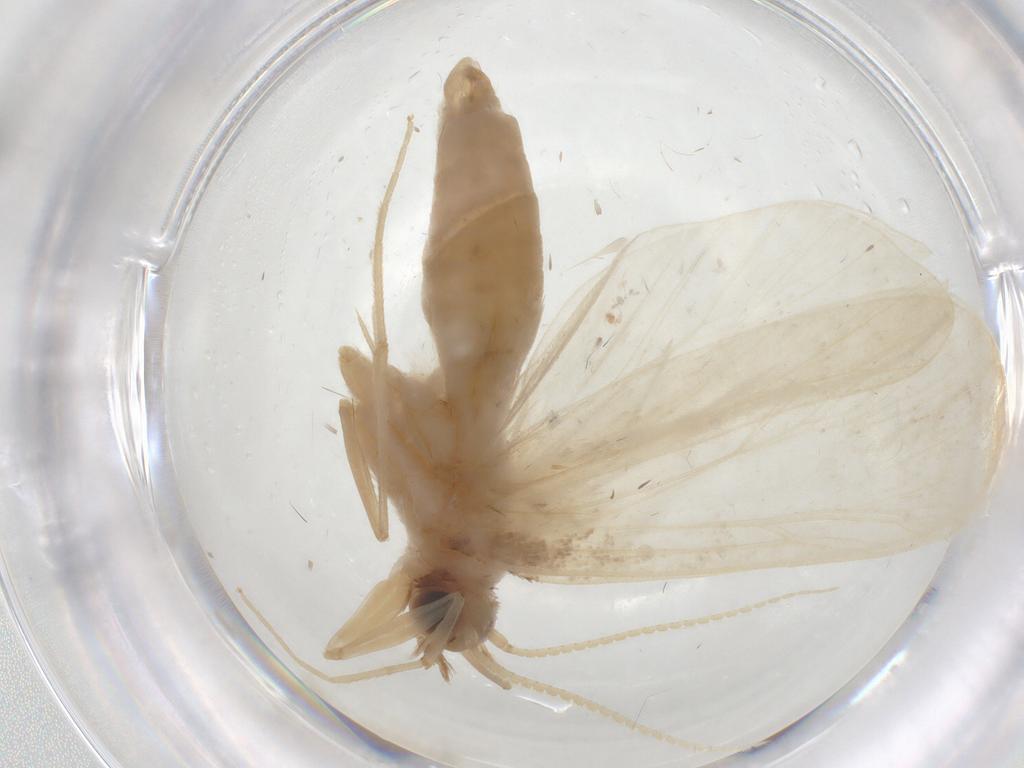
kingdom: Animalia
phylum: Arthropoda
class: Insecta
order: Lepidoptera
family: Crambidae
